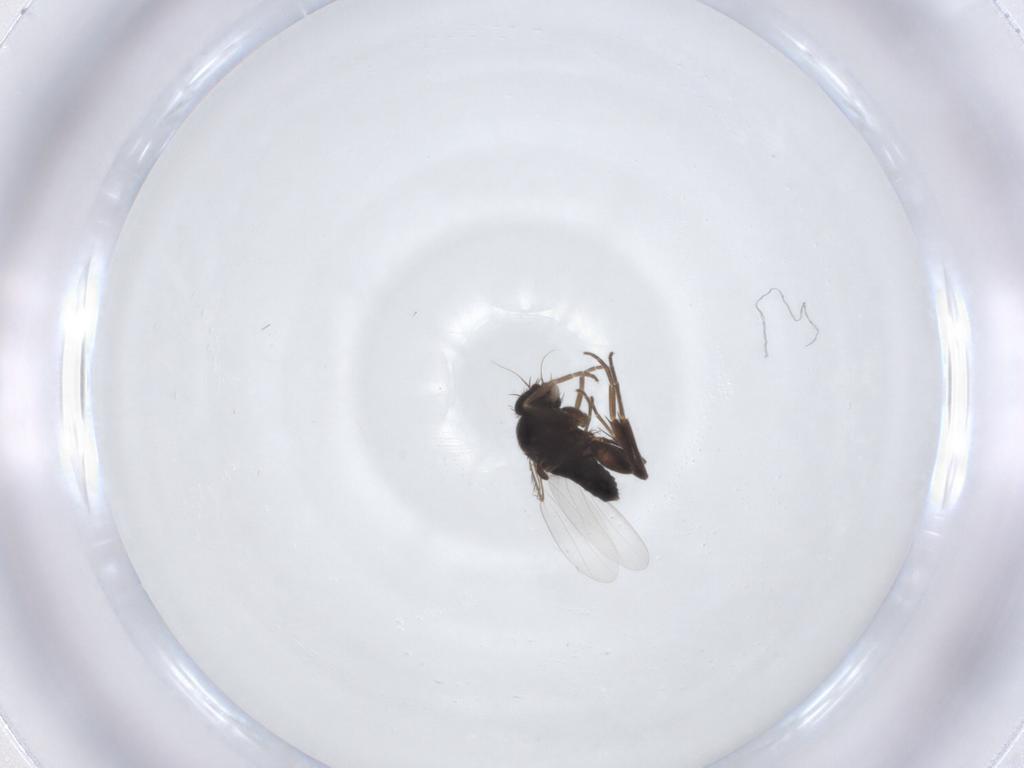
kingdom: Animalia
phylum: Arthropoda
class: Insecta
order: Diptera
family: Phoridae
